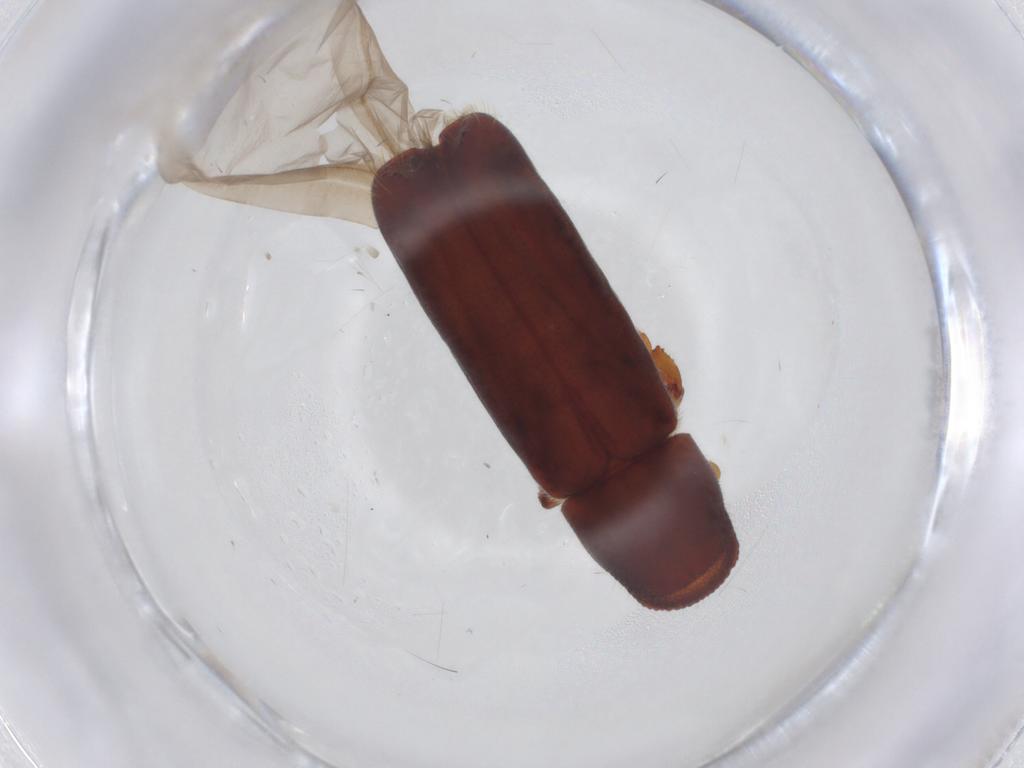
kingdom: Animalia
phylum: Arthropoda
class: Insecta
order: Coleoptera
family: Curculionidae
